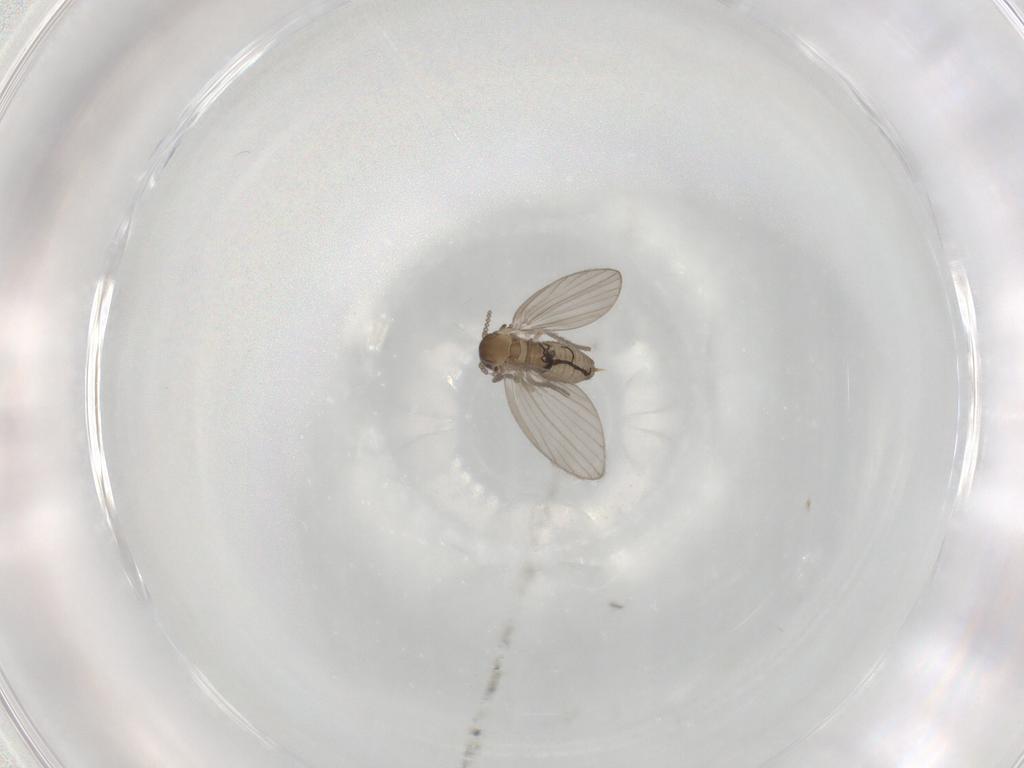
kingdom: Animalia
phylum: Arthropoda
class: Insecta
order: Diptera
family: Psychodidae
